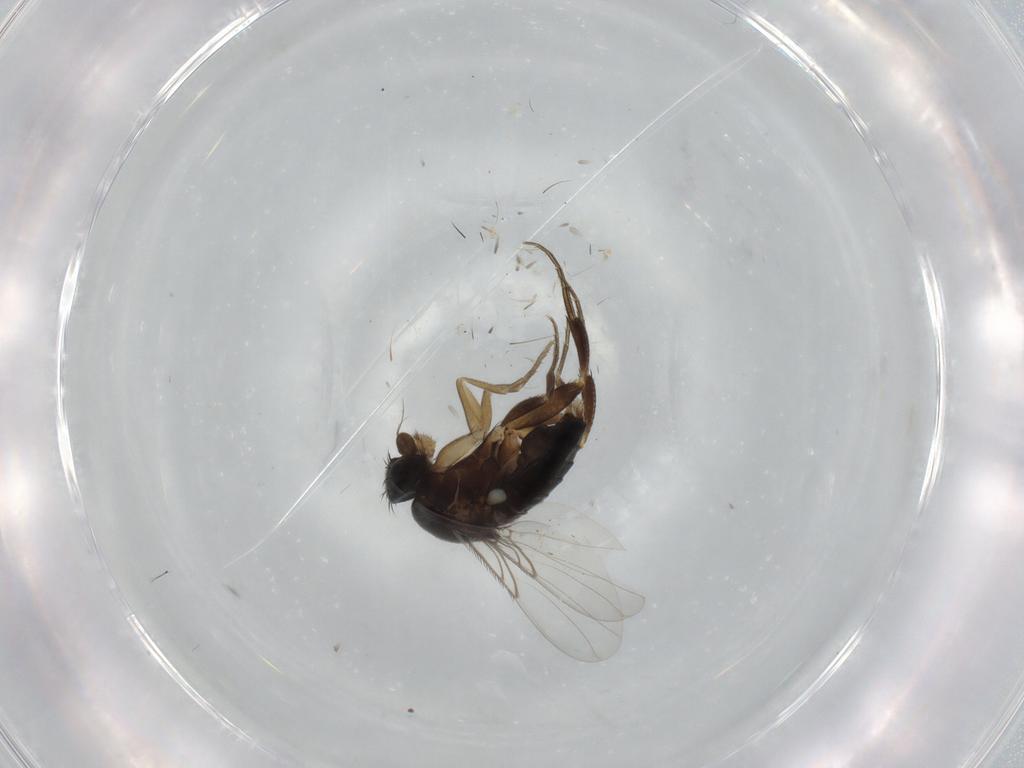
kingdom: Animalia
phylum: Arthropoda
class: Insecta
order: Diptera
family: Phoridae
